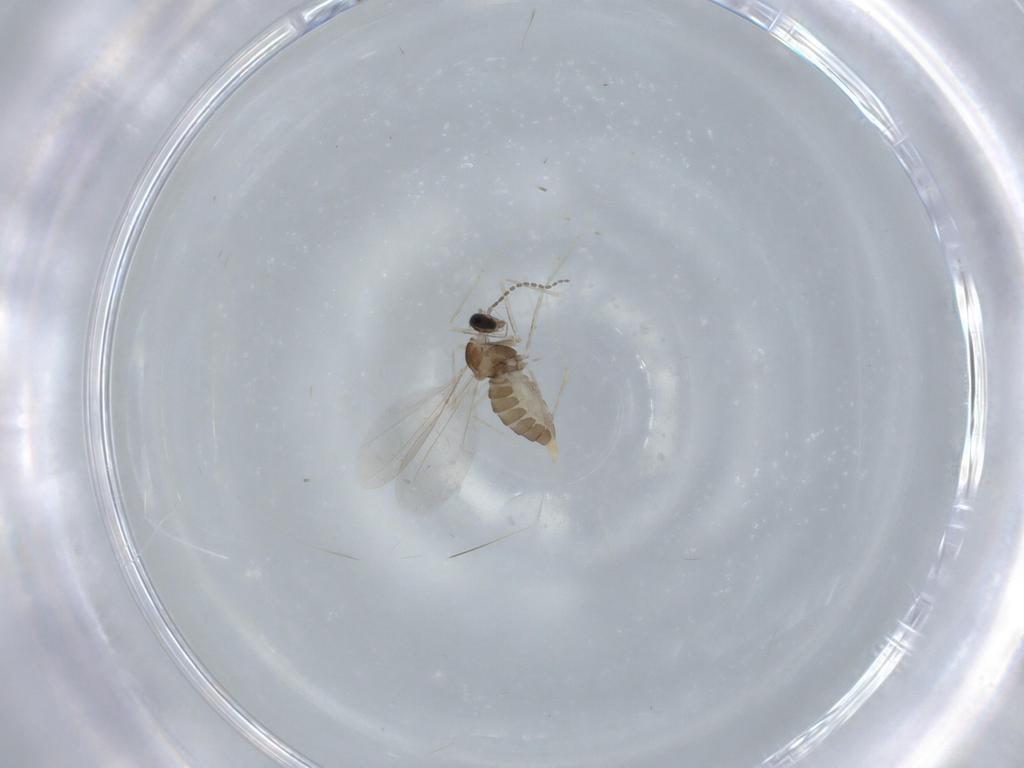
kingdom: Animalia
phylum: Arthropoda
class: Insecta
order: Diptera
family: Cecidomyiidae
